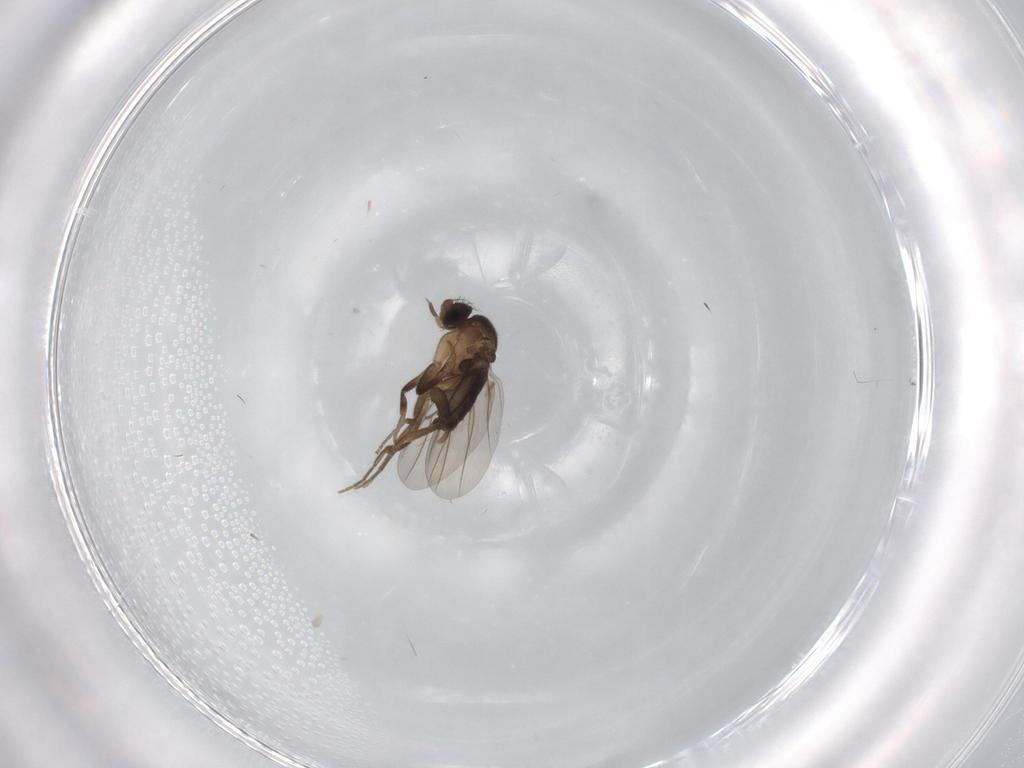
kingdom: Animalia
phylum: Arthropoda
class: Insecta
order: Diptera
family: Phoridae
